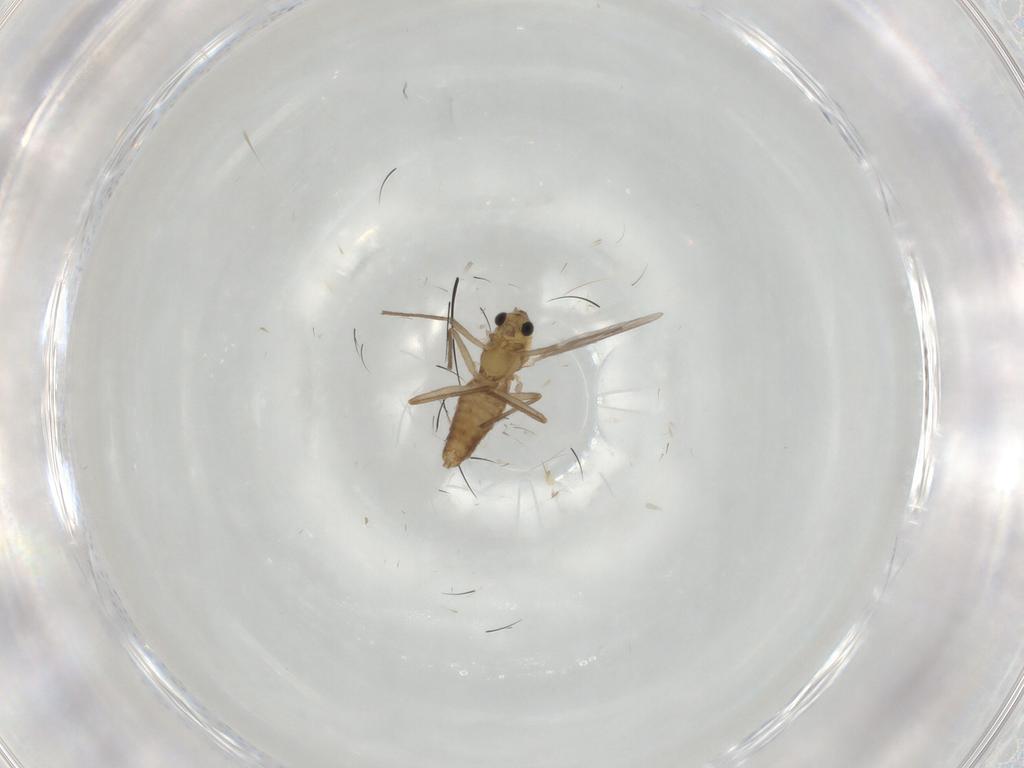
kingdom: Animalia
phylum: Arthropoda
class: Insecta
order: Diptera
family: Chironomidae
